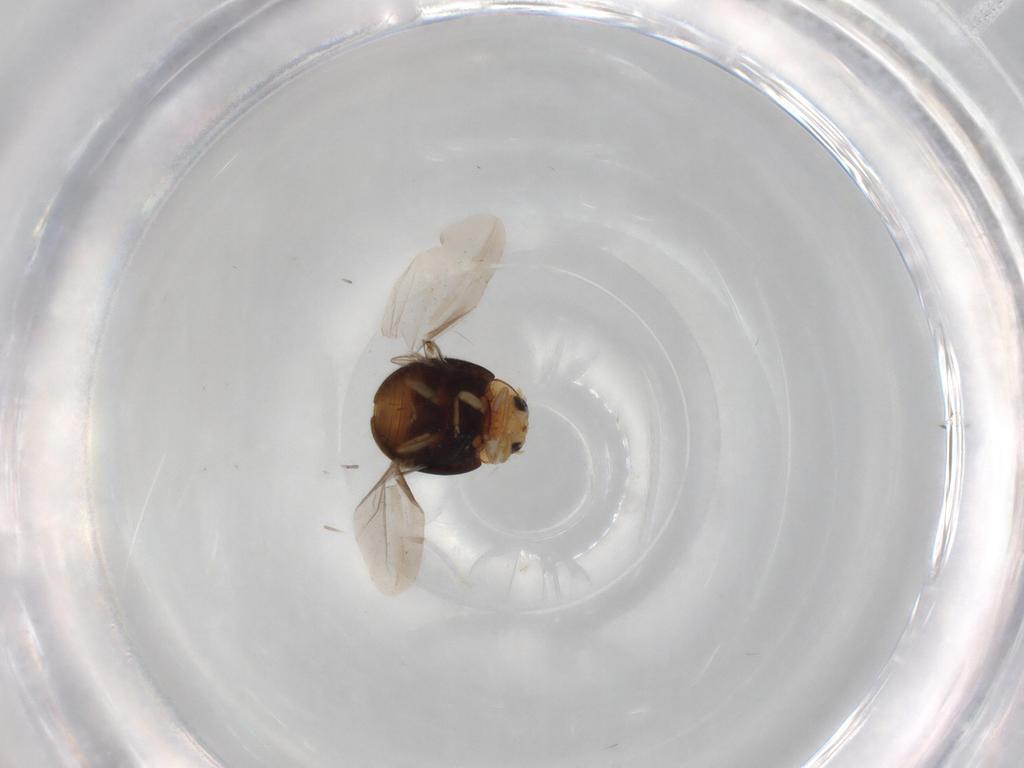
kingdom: Animalia
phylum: Arthropoda
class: Insecta
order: Coleoptera
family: Coccinellidae
